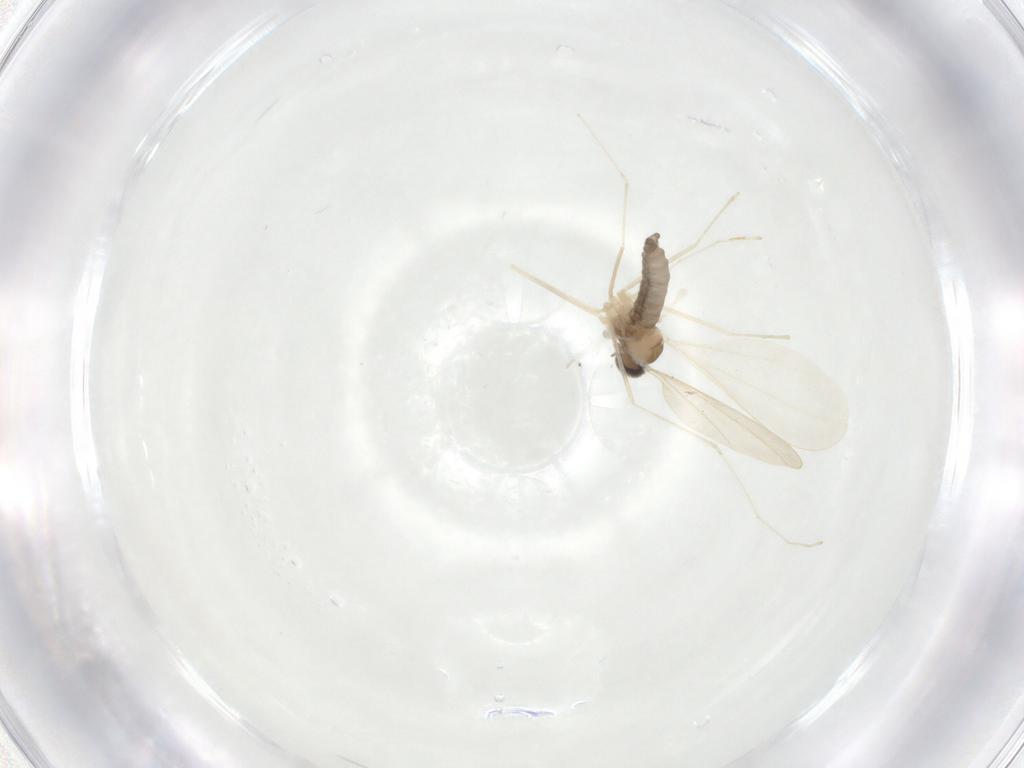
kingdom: Animalia
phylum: Arthropoda
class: Insecta
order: Diptera
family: Cecidomyiidae
